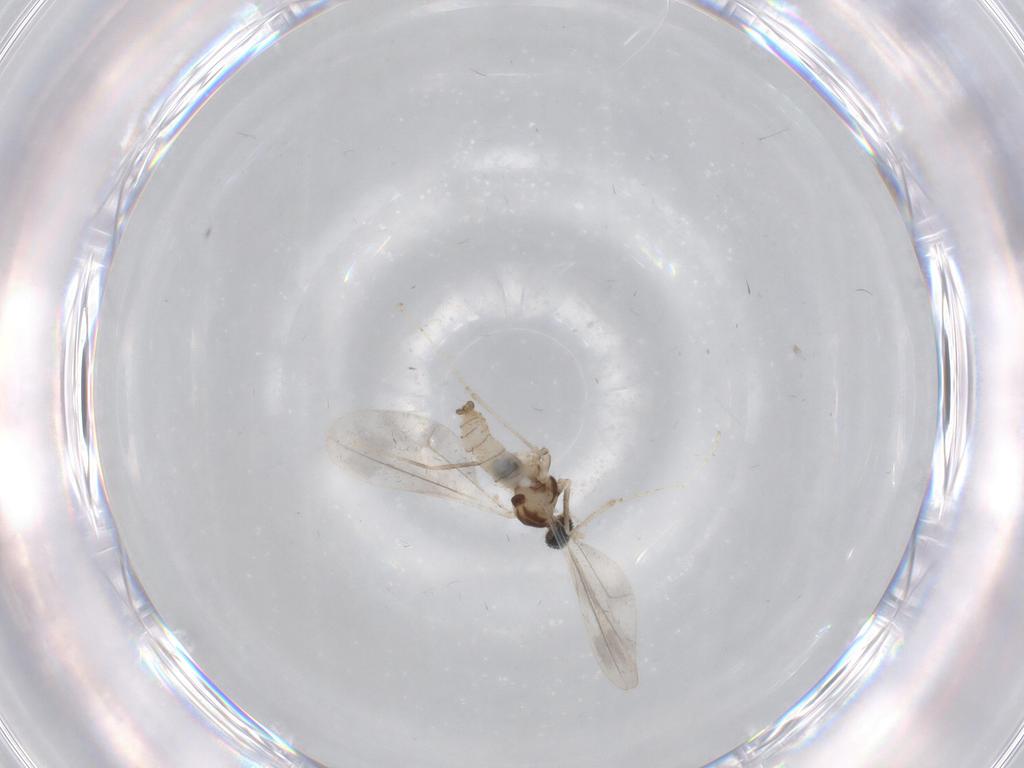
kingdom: Animalia
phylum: Arthropoda
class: Insecta
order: Diptera
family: Cecidomyiidae
